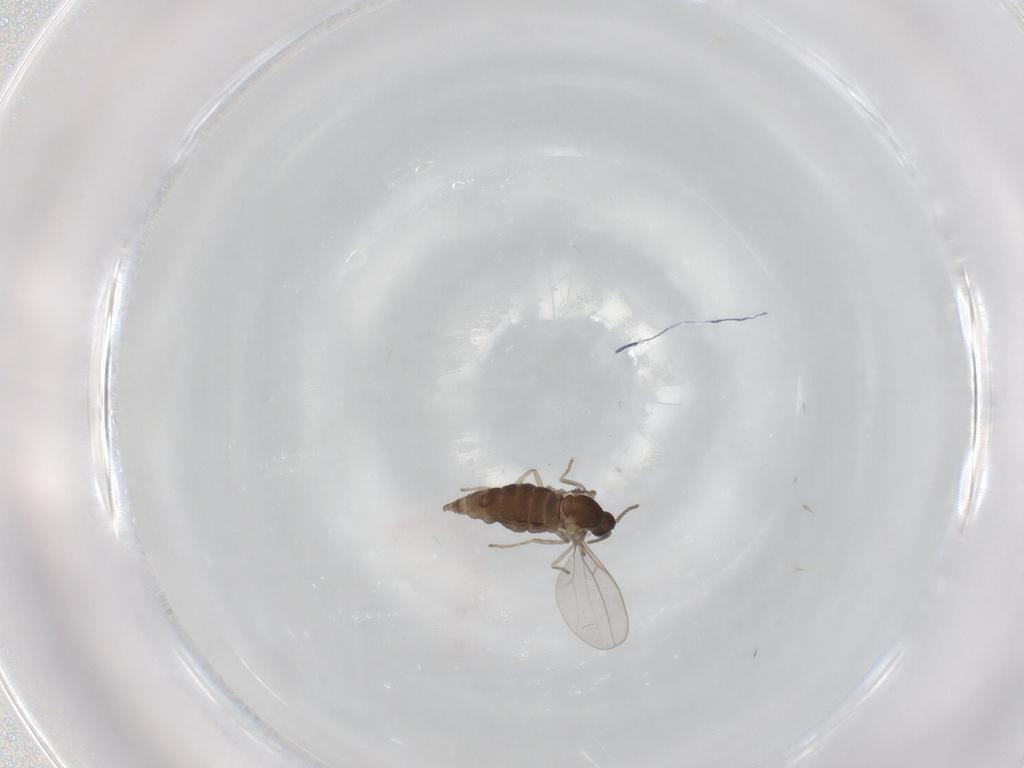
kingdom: Animalia
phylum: Arthropoda
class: Insecta
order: Diptera
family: Cecidomyiidae
